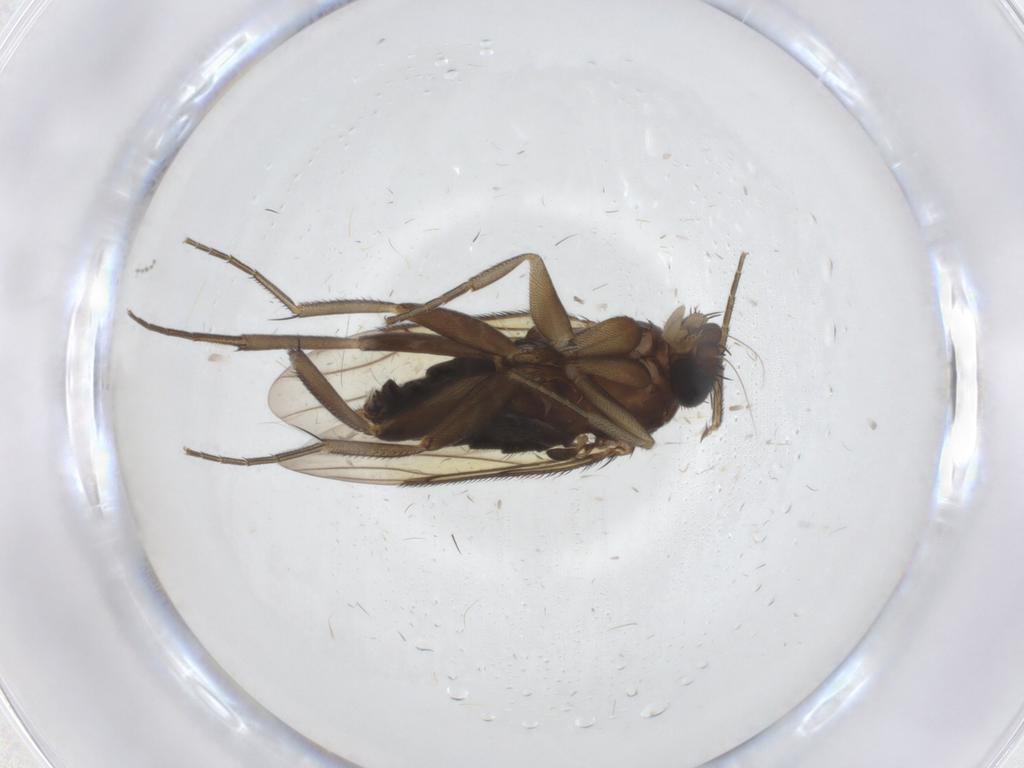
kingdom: Animalia
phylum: Arthropoda
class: Insecta
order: Diptera
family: Phoridae
